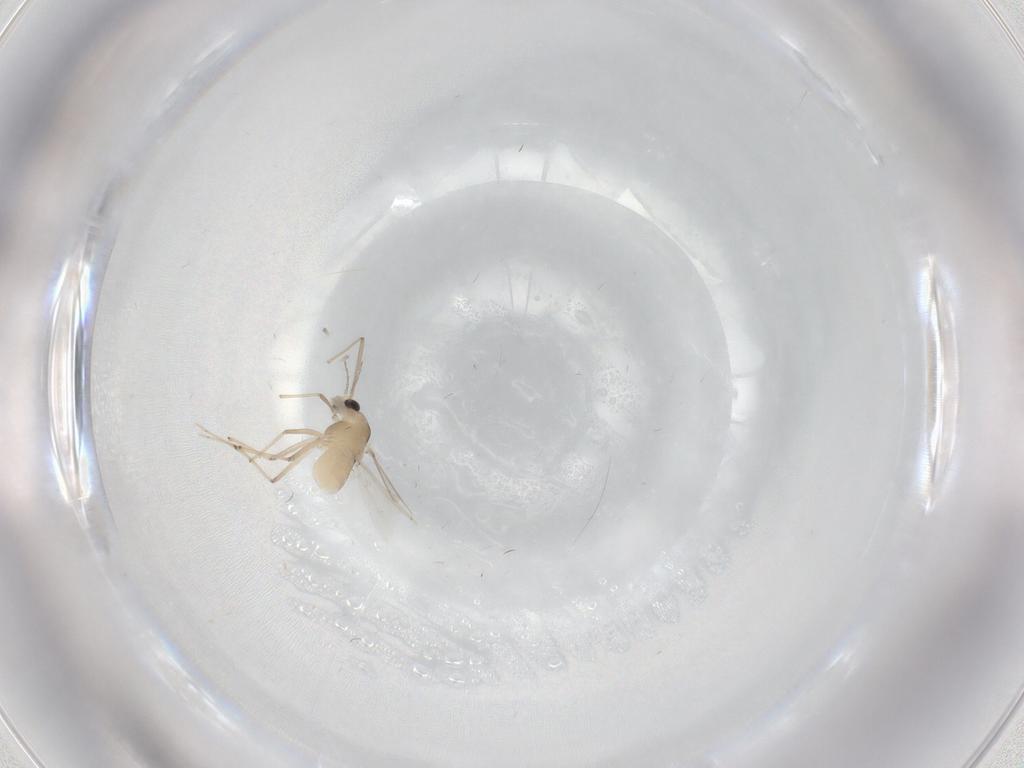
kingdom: Animalia
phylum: Arthropoda
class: Insecta
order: Diptera
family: Chironomidae
